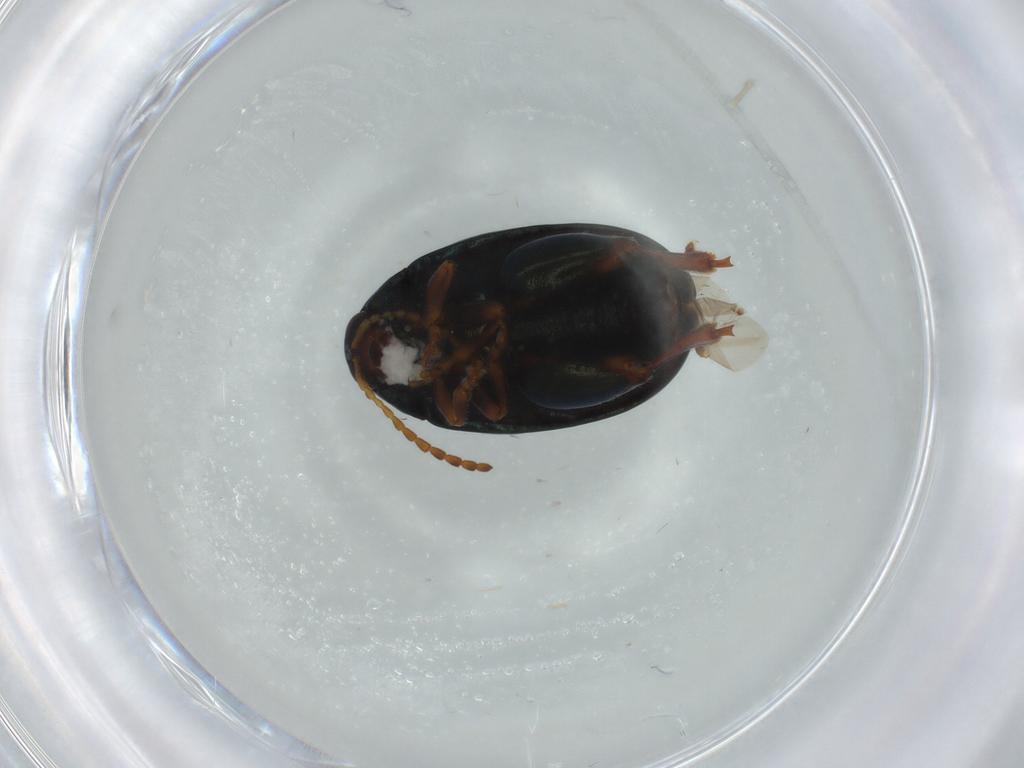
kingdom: Animalia
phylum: Arthropoda
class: Insecta
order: Coleoptera
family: Chrysomelidae
